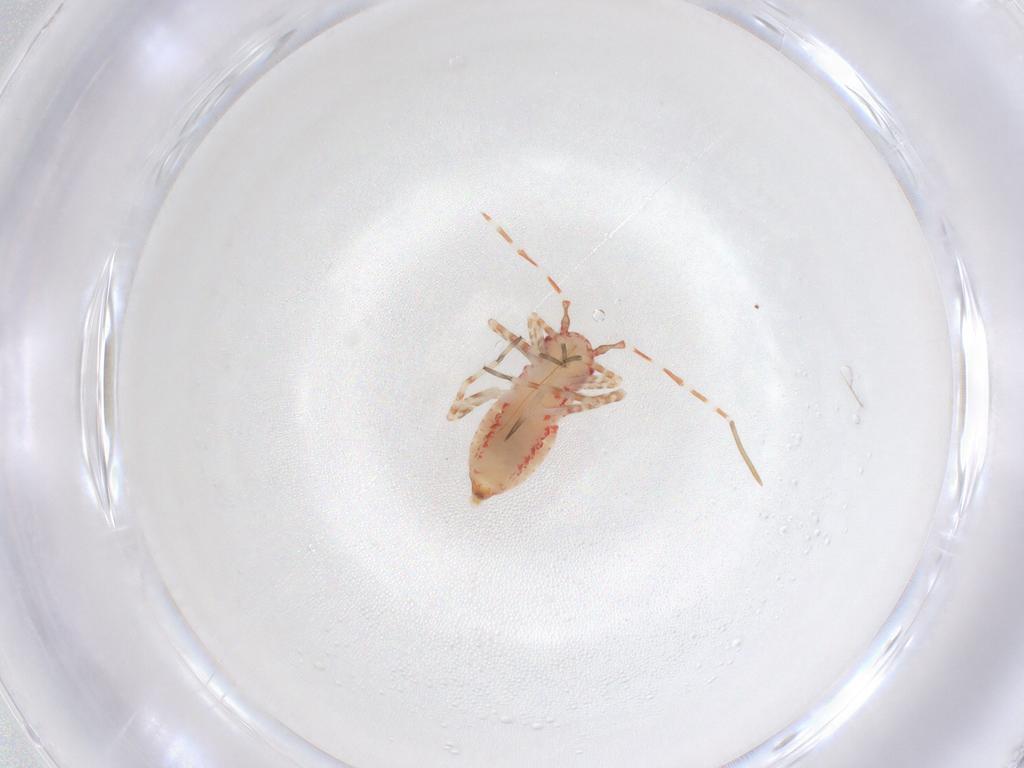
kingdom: Animalia
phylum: Arthropoda
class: Insecta
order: Hemiptera
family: Miridae
